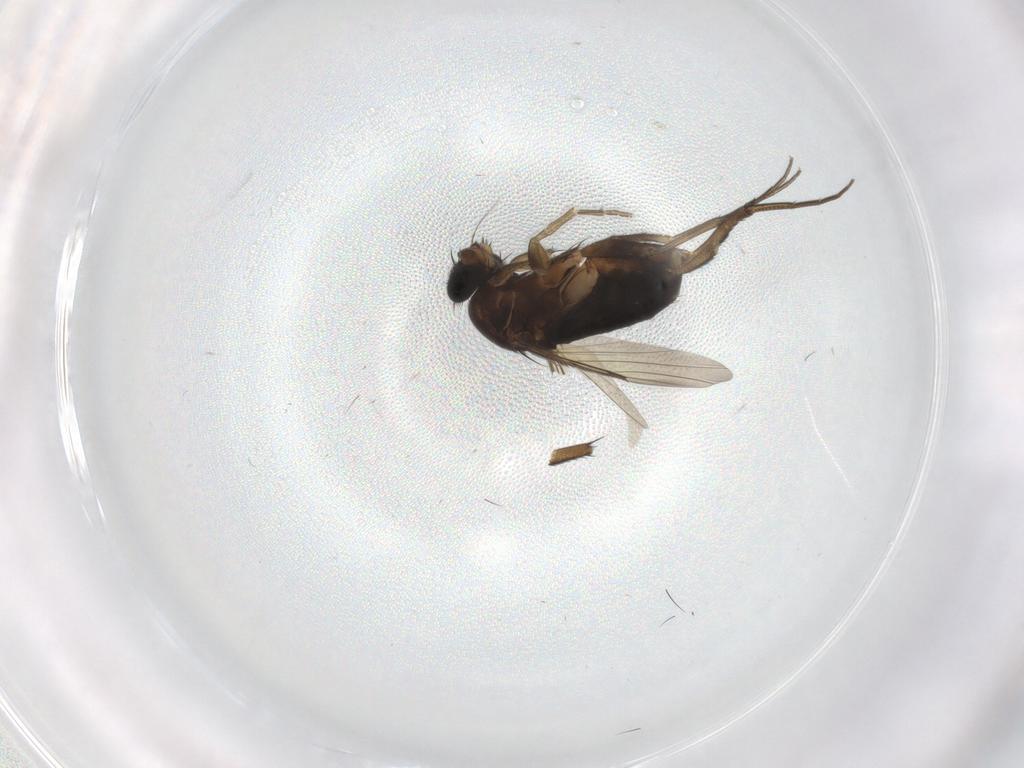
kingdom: Animalia
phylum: Arthropoda
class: Insecta
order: Diptera
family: Phoridae
